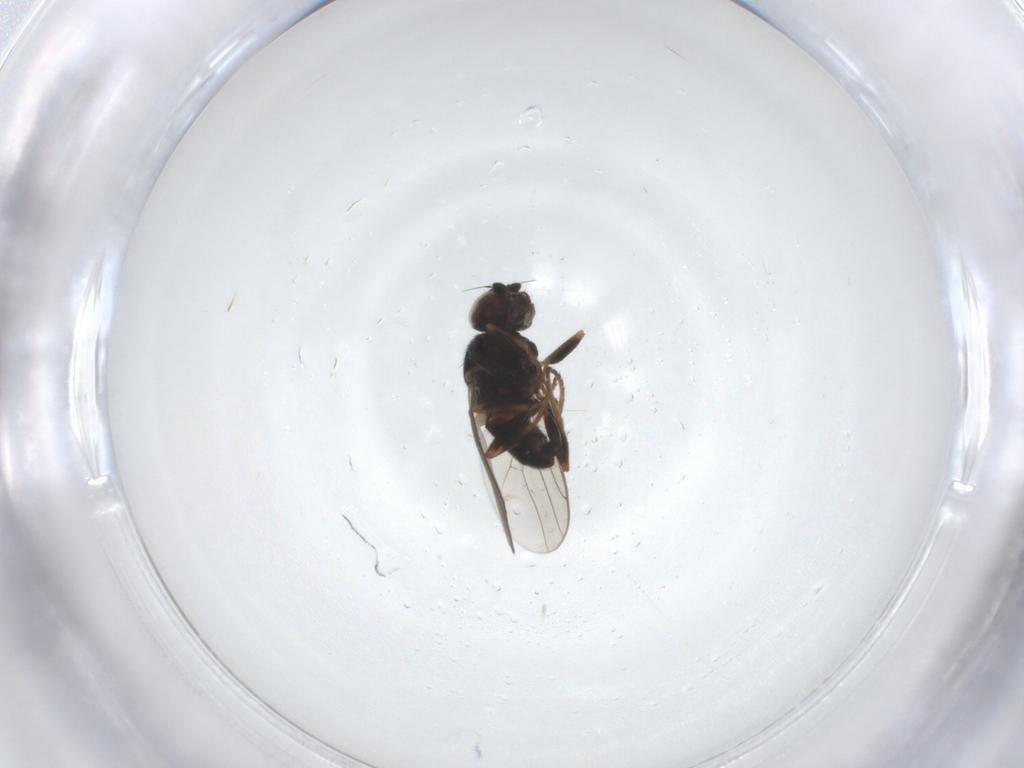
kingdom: Animalia
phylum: Arthropoda
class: Insecta
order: Diptera
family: Chloropidae
